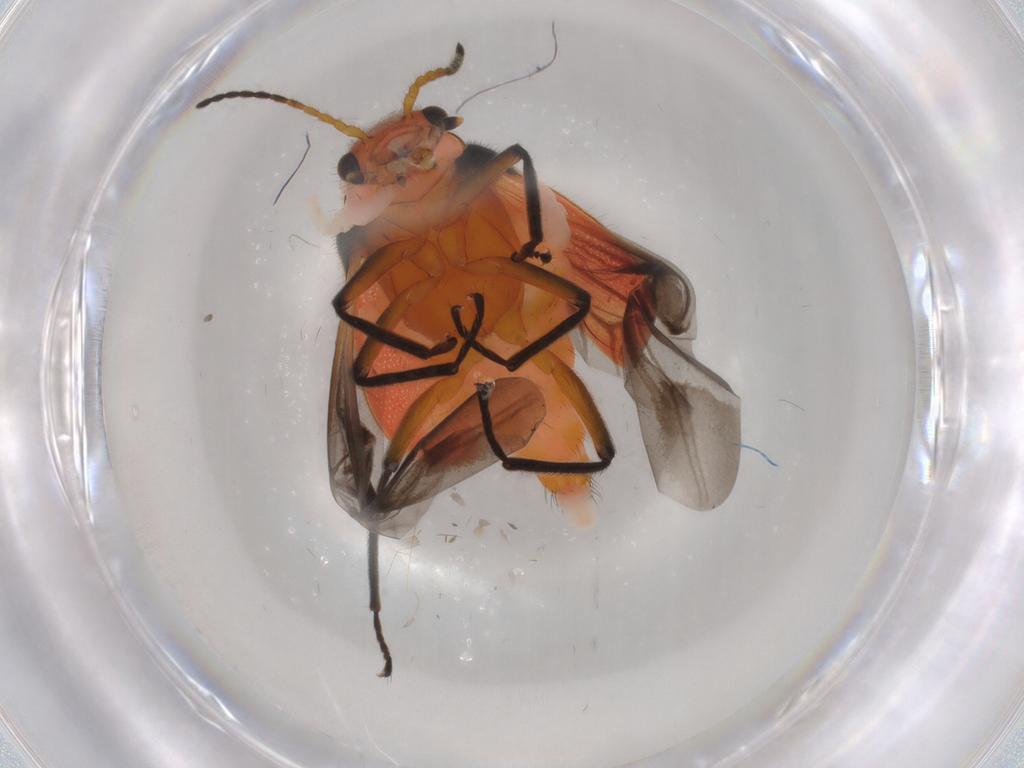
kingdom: Animalia
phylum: Arthropoda
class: Insecta
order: Coleoptera
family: Melyridae
